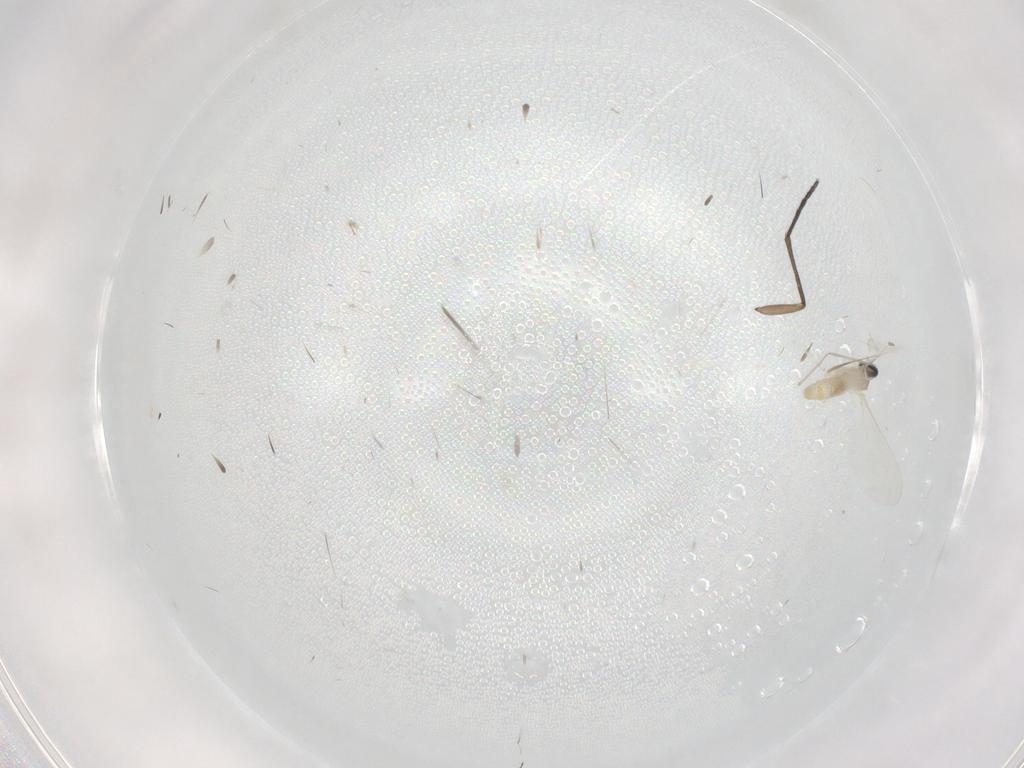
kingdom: Animalia
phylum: Arthropoda
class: Insecta
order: Diptera
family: Cecidomyiidae
